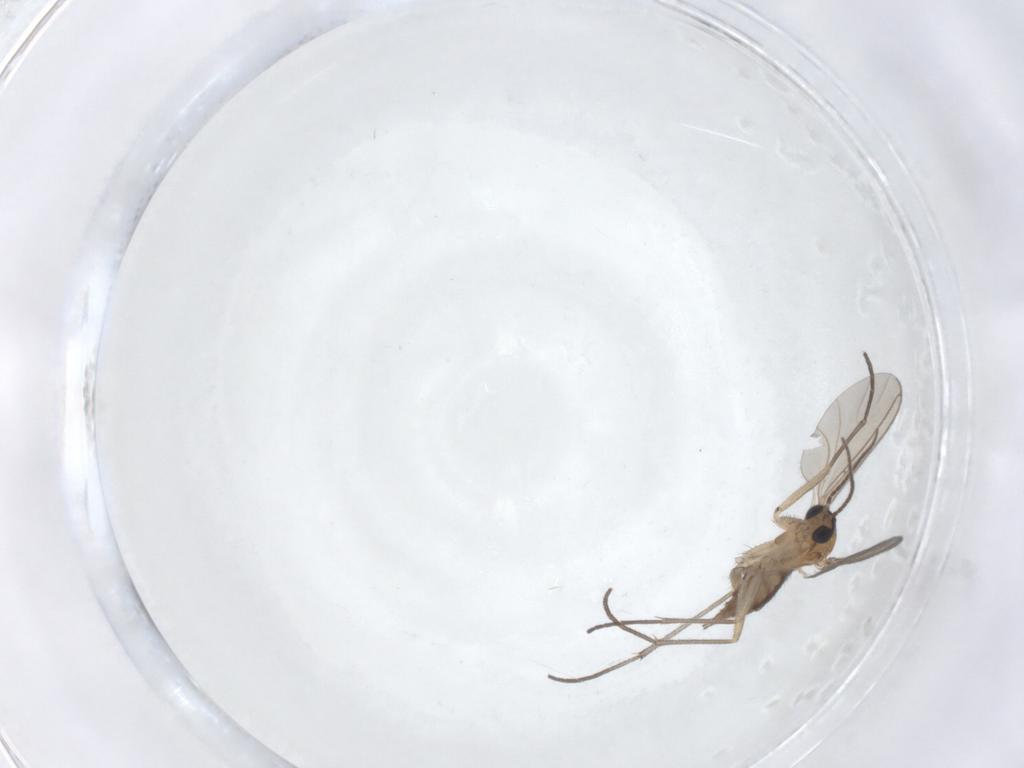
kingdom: Animalia
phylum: Arthropoda
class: Insecta
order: Diptera
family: Sciaridae
